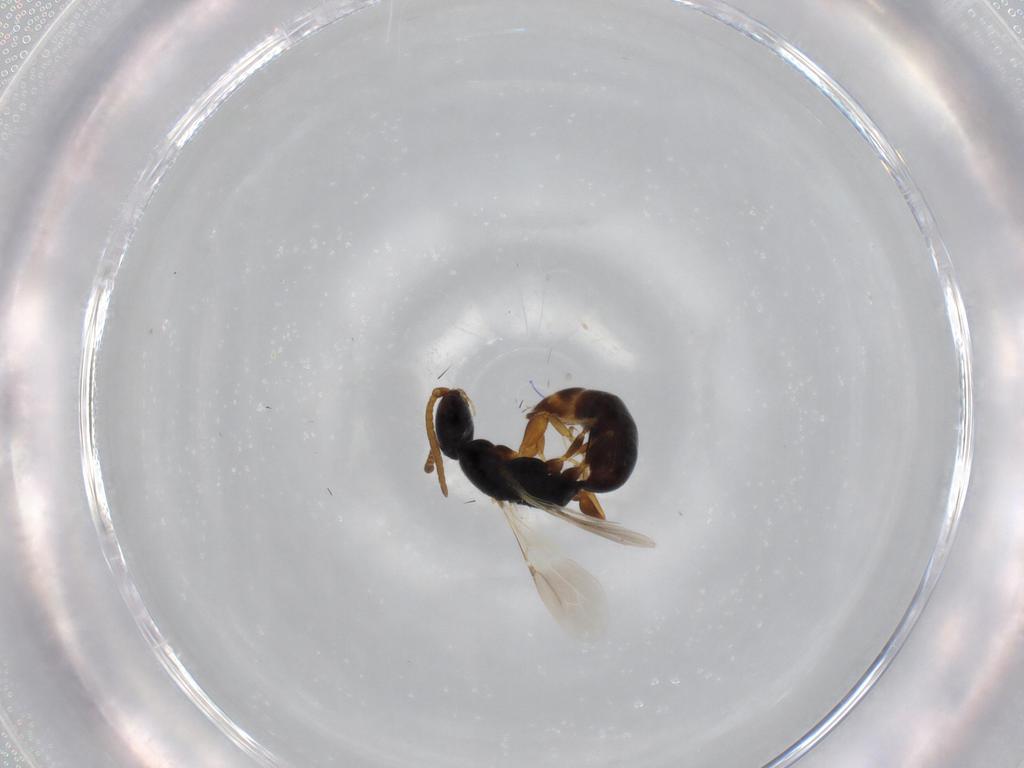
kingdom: Animalia
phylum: Arthropoda
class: Insecta
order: Hymenoptera
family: Bethylidae
